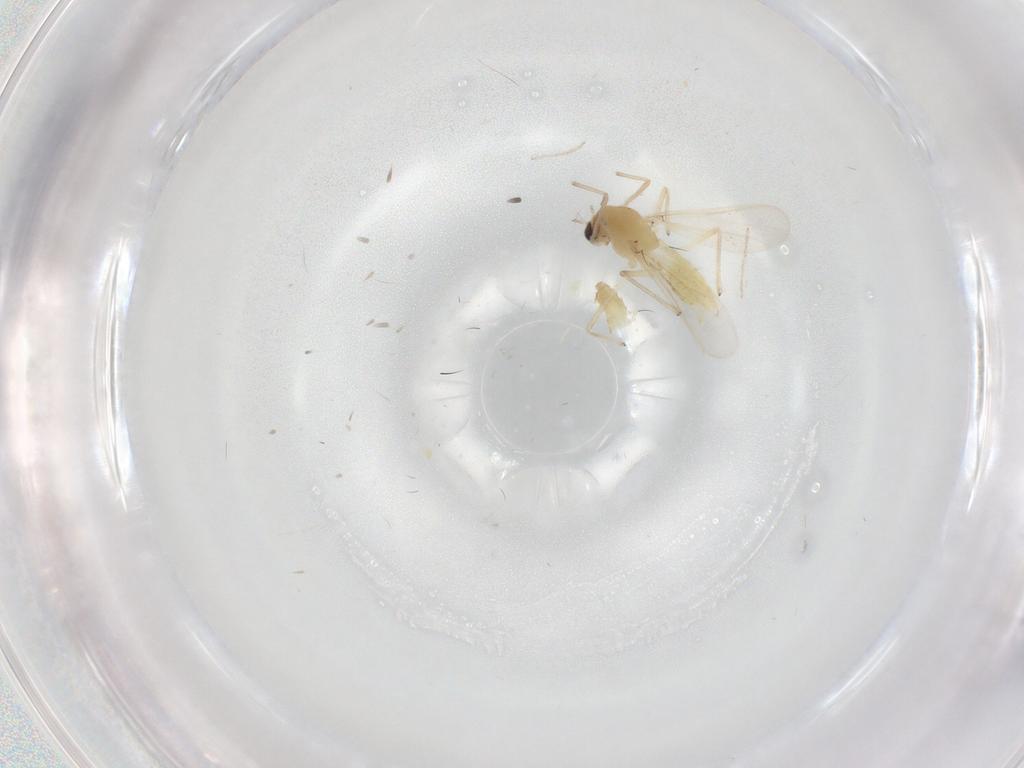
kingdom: Animalia
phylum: Arthropoda
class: Insecta
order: Diptera
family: Chironomidae
